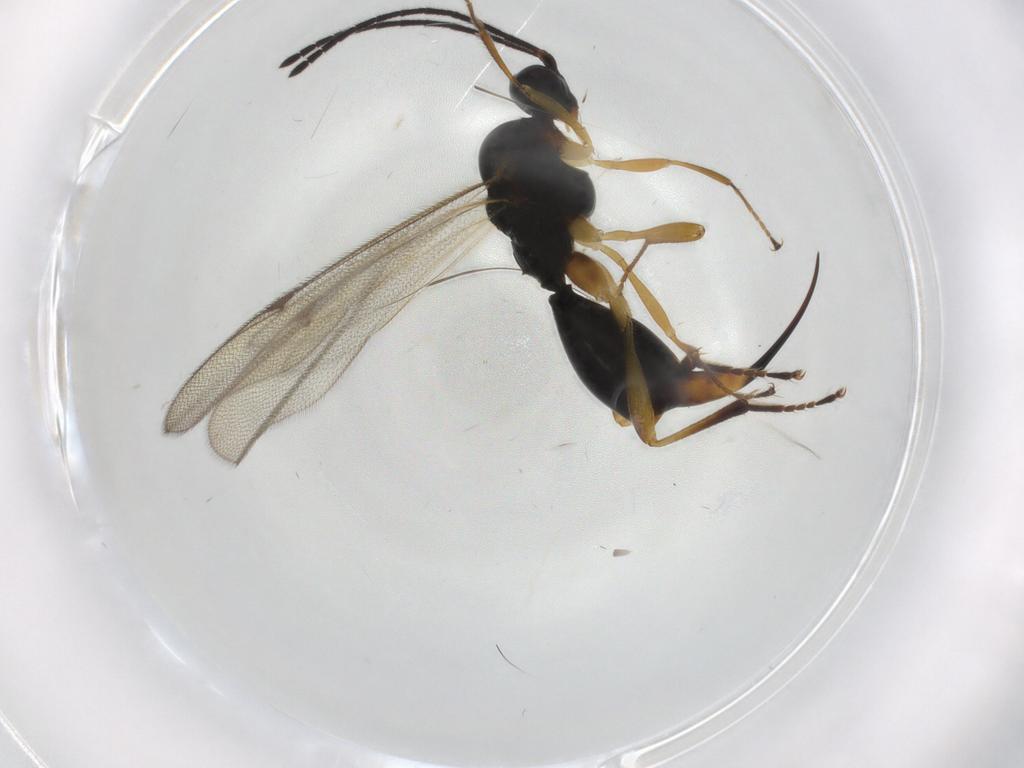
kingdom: Animalia
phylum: Arthropoda
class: Insecta
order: Hymenoptera
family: Proctotrupidae
